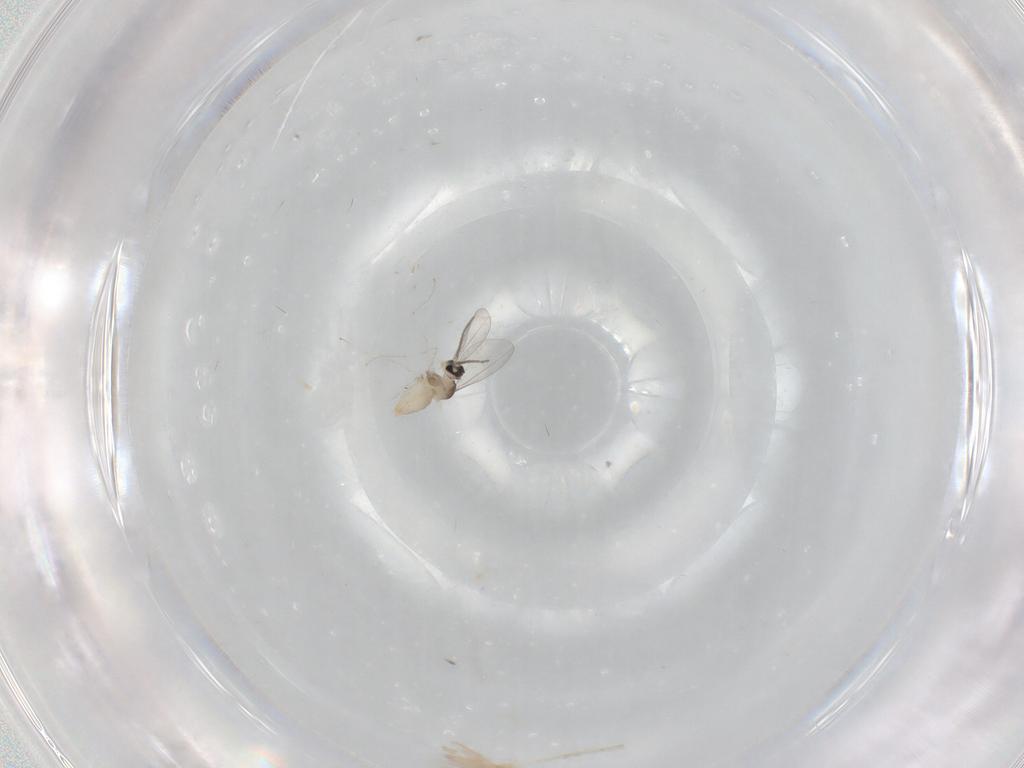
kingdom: Animalia
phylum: Arthropoda
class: Insecta
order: Diptera
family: Cecidomyiidae
